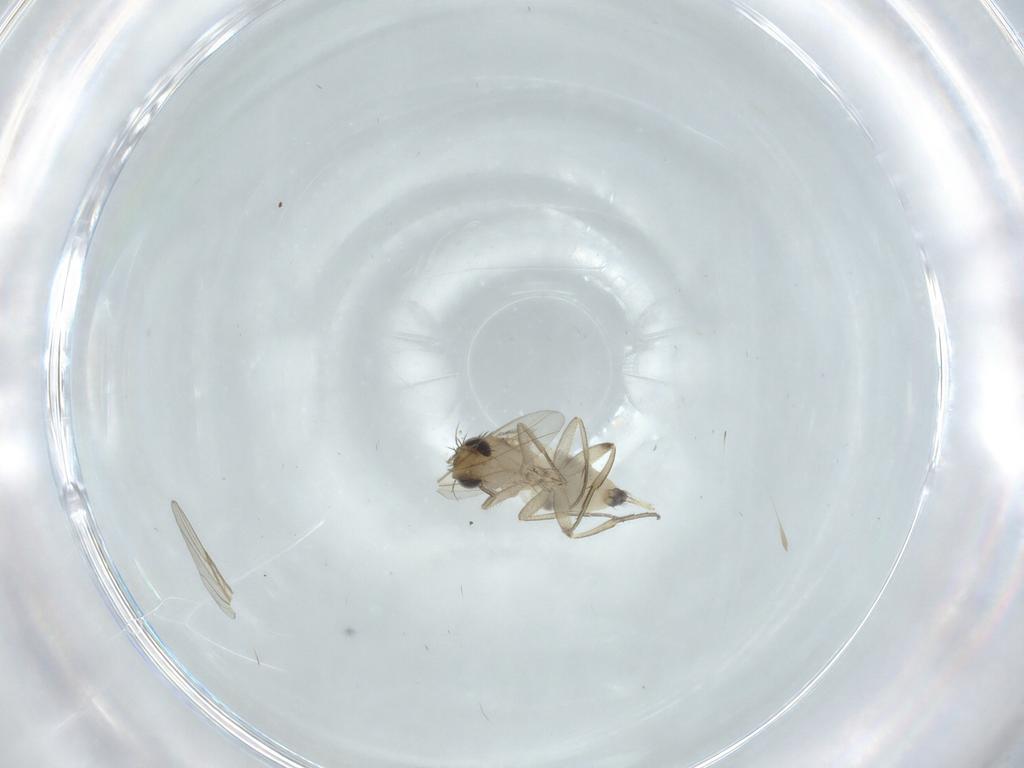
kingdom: Animalia
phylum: Arthropoda
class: Insecta
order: Diptera
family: Phoridae
